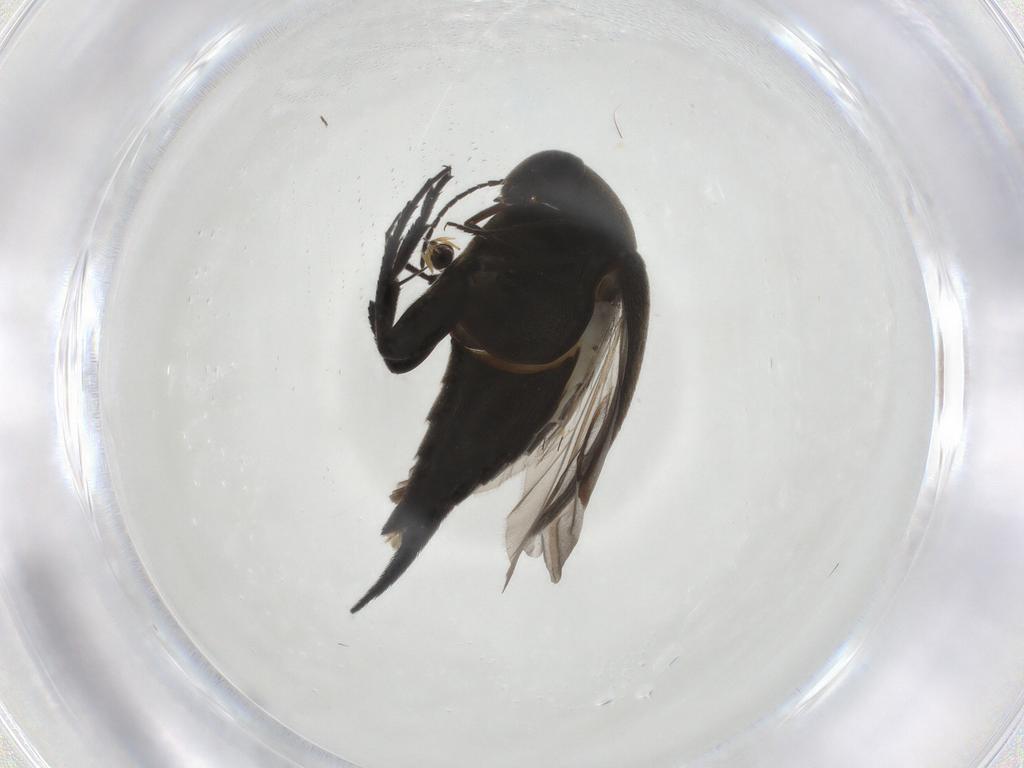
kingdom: Animalia
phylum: Arthropoda
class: Insecta
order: Coleoptera
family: Mordellidae
